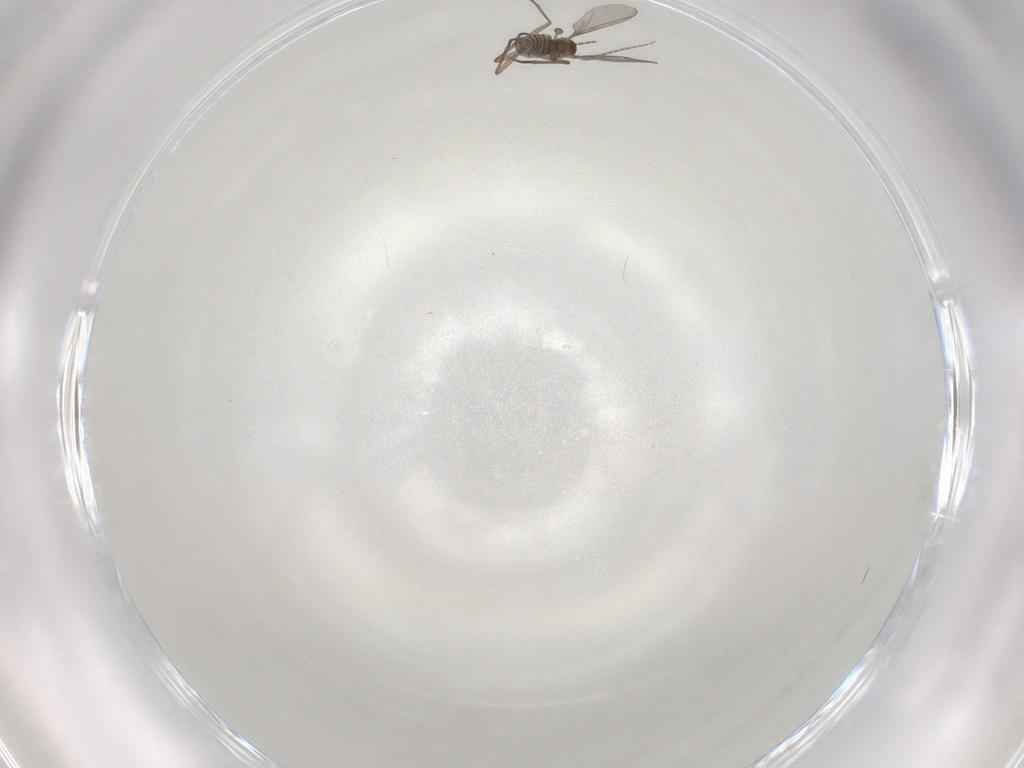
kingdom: Animalia
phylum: Arthropoda
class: Insecta
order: Diptera
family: Sciaridae
